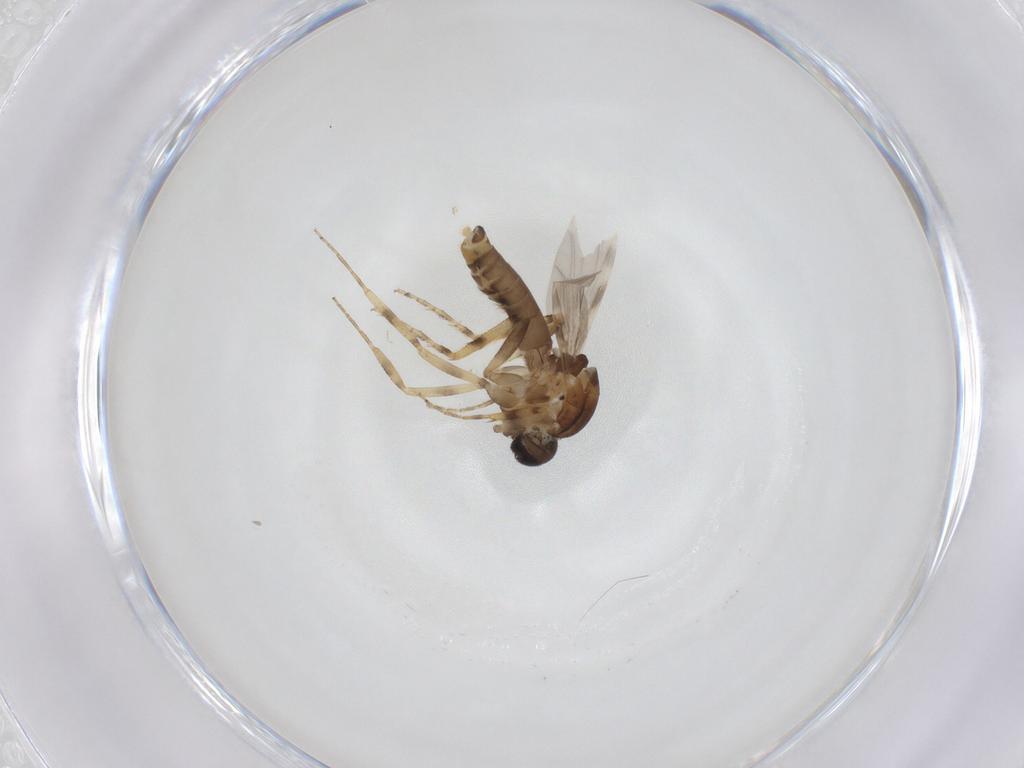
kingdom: Animalia
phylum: Arthropoda
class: Insecta
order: Diptera
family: Ceratopogonidae
